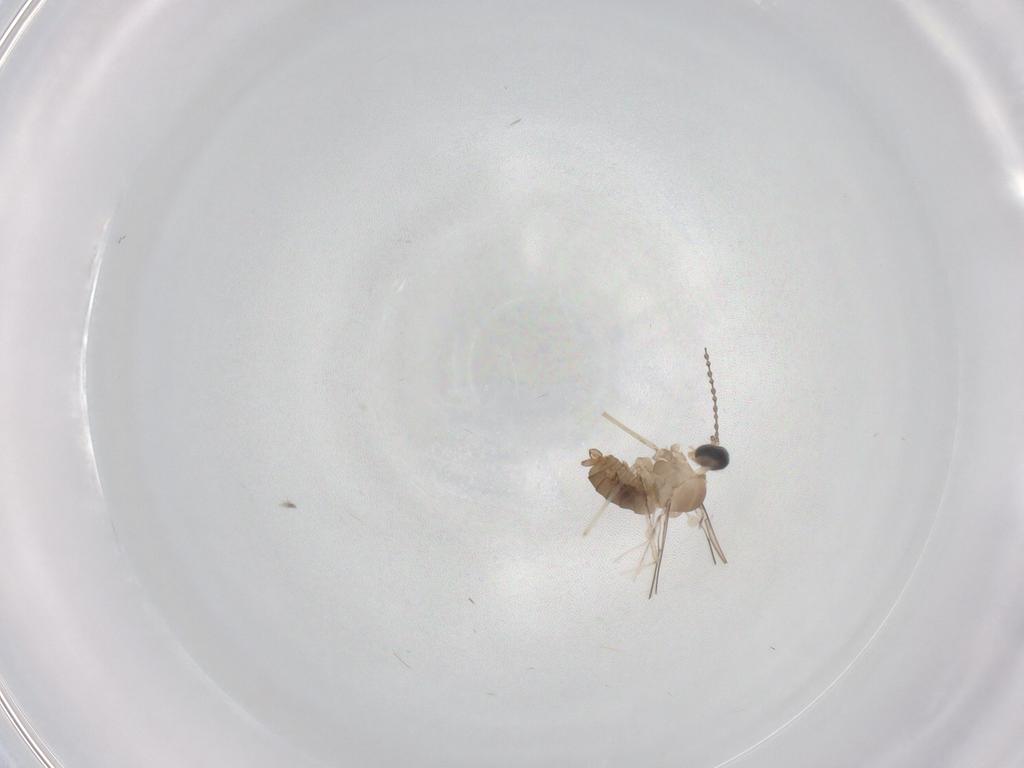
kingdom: Animalia
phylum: Arthropoda
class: Insecta
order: Diptera
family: Cecidomyiidae
